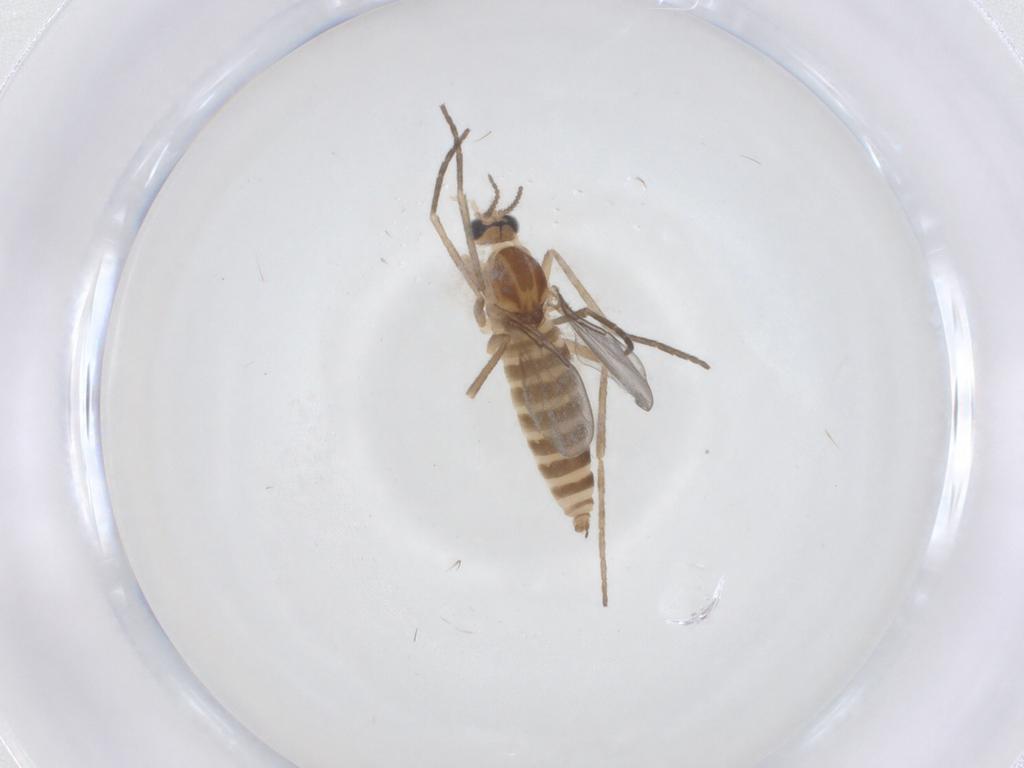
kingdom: Animalia
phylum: Arthropoda
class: Insecta
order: Diptera
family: Cecidomyiidae
